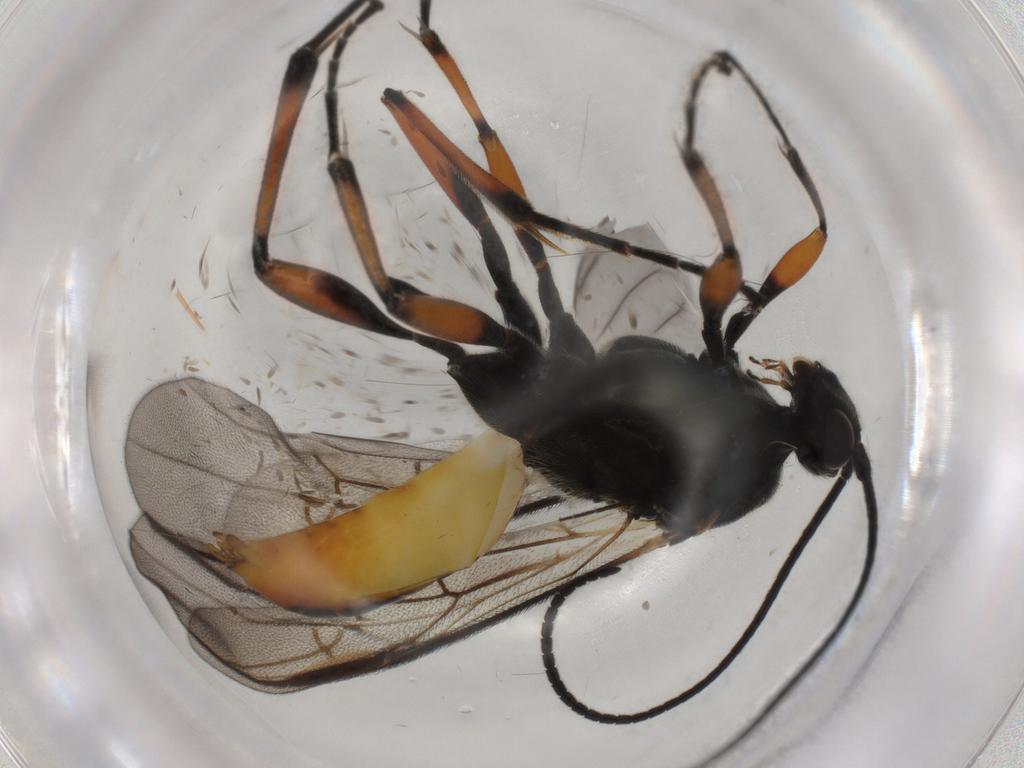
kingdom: Animalia
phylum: Arthropoda
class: Insecta
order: Hymenoptera
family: Braconidae
